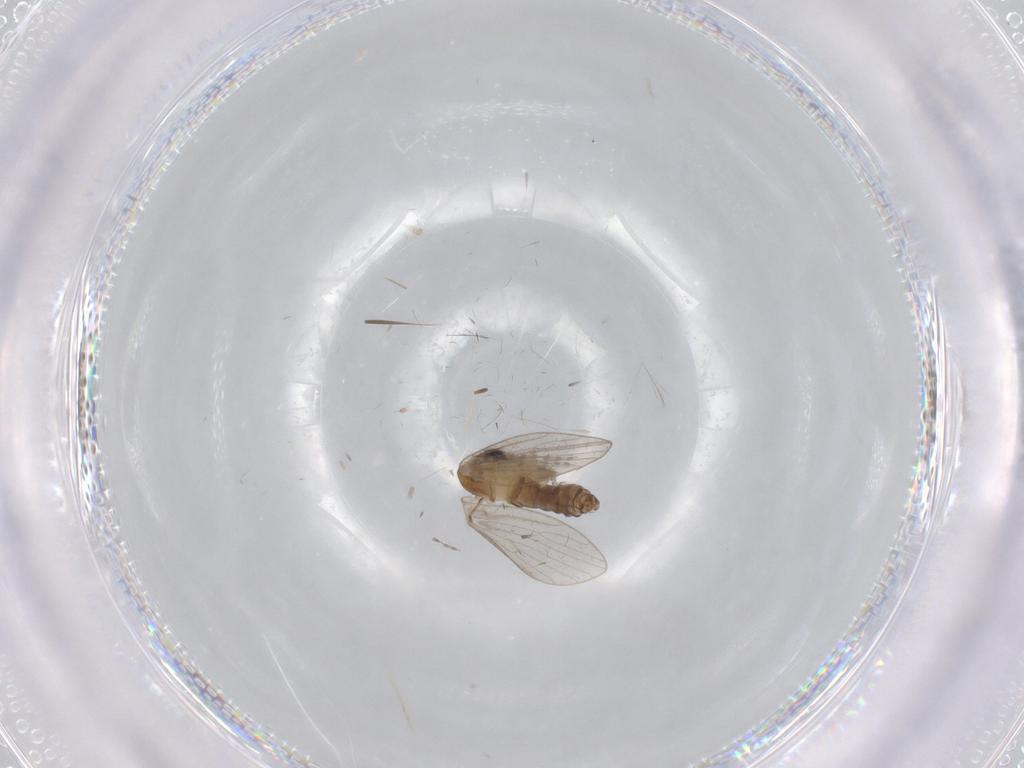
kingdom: Animalia
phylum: Arthropoda
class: Insecta
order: Diptera
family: Psychodidae
